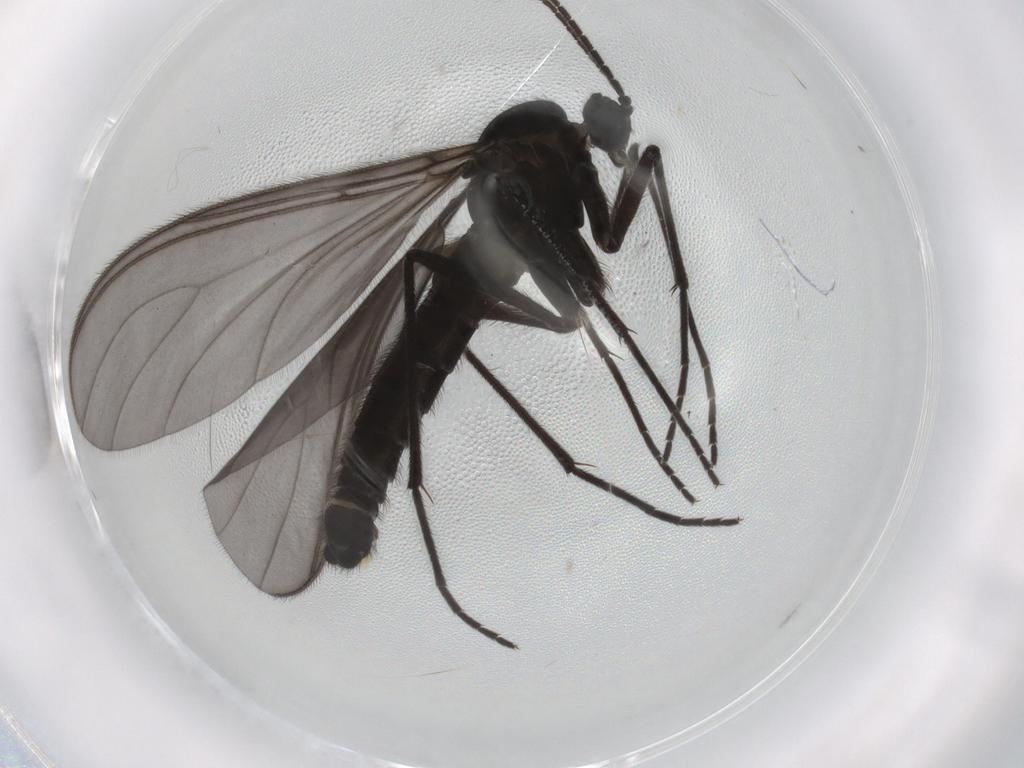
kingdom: Animalia
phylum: Arthropoda
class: Insecta
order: Diptera
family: Sciaridae
